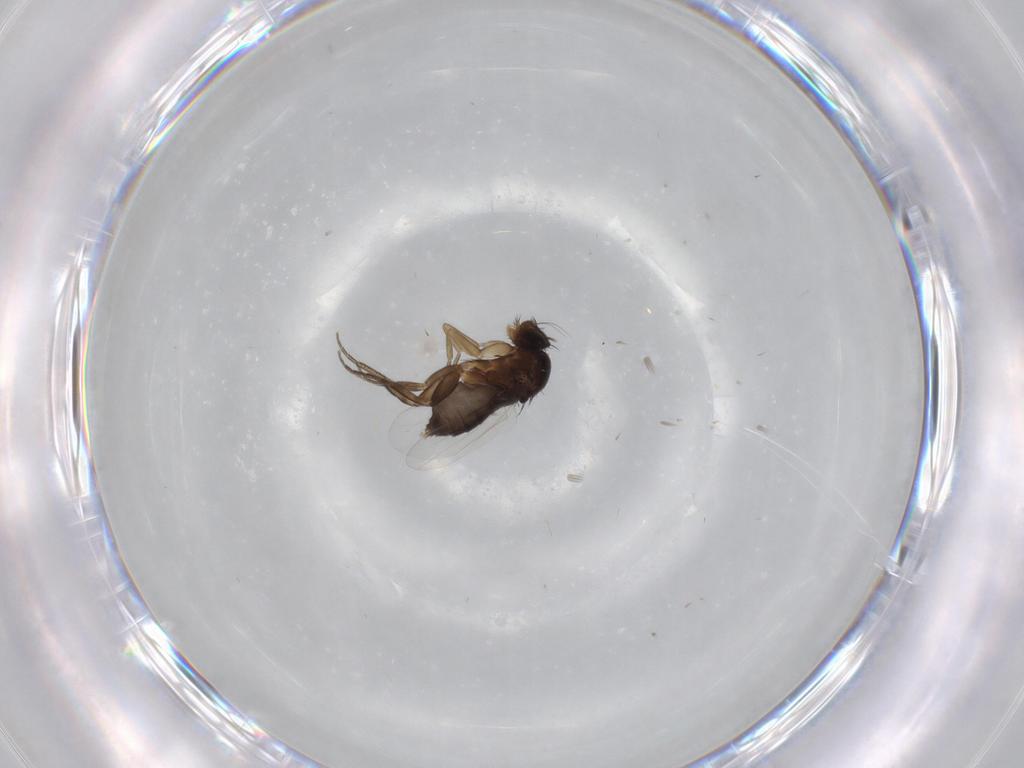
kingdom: Animalia
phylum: Arthropoda
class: Insecta
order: Diptera
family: Phoridae
